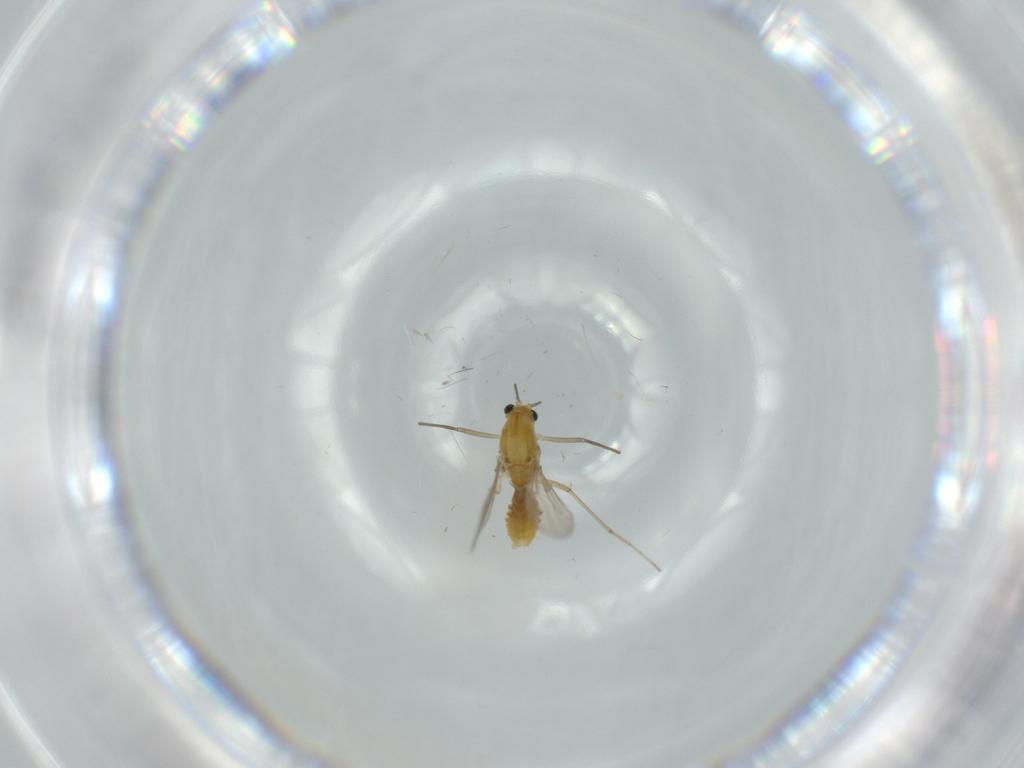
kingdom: Animalia
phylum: Arthropoda
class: Insecta
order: Diptera
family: Tabanidae
